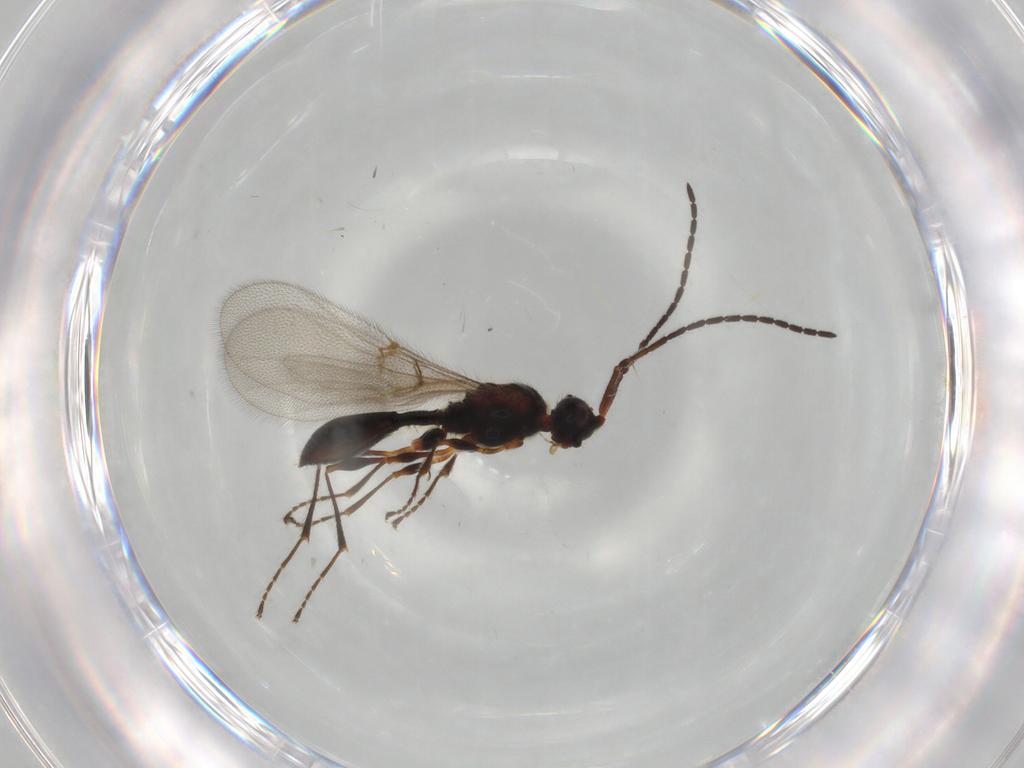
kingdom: Animalia
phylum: Arthropoda
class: Insecta
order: Hymenoptera
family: Diapriidae
